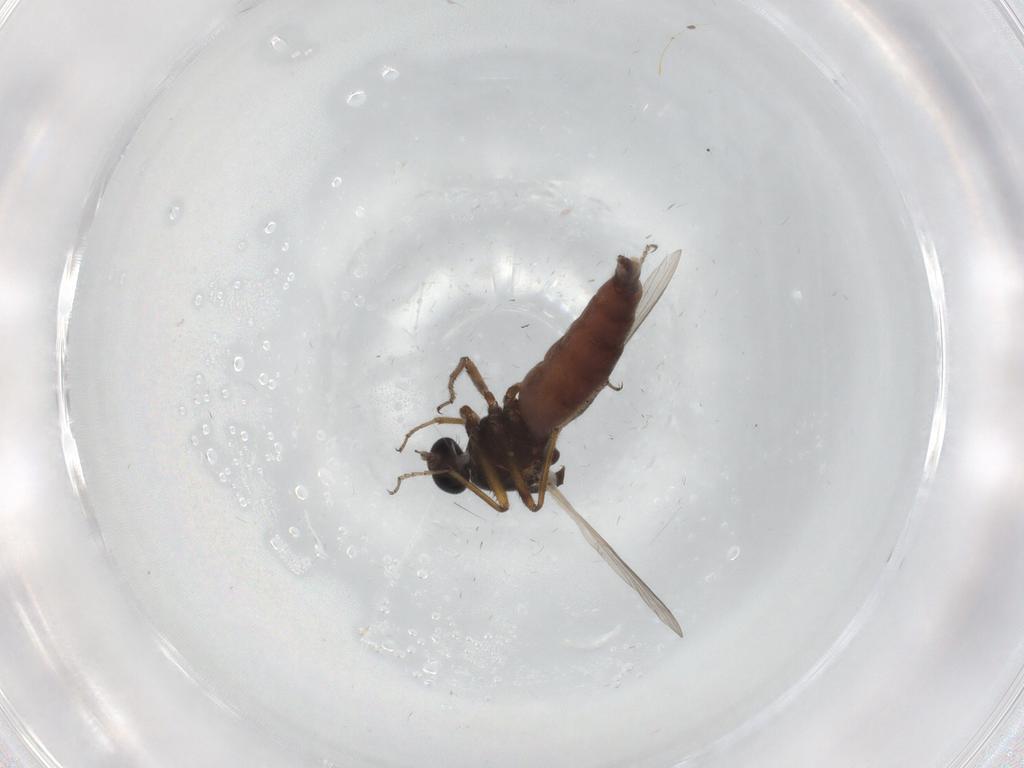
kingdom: Animalia
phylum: Arthropoda
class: Insecta
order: Diptera
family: Ceratopogonidae
